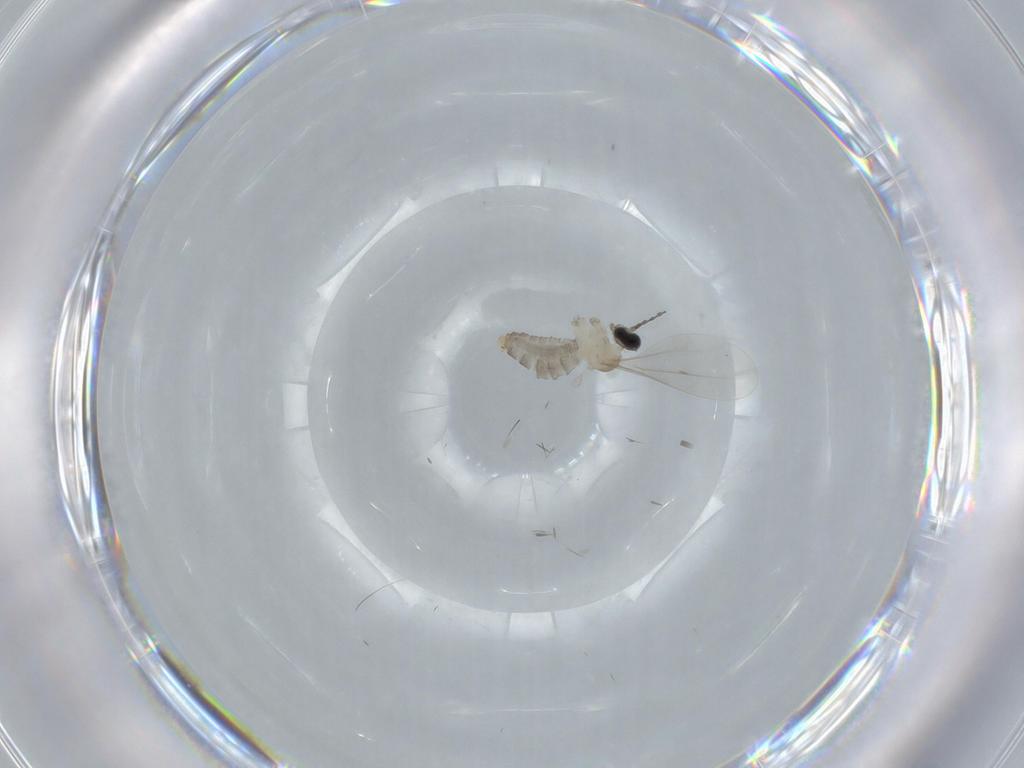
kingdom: Animalia
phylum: Arthropoda
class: Insecta
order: Diptera
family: Cecidomyiidae
